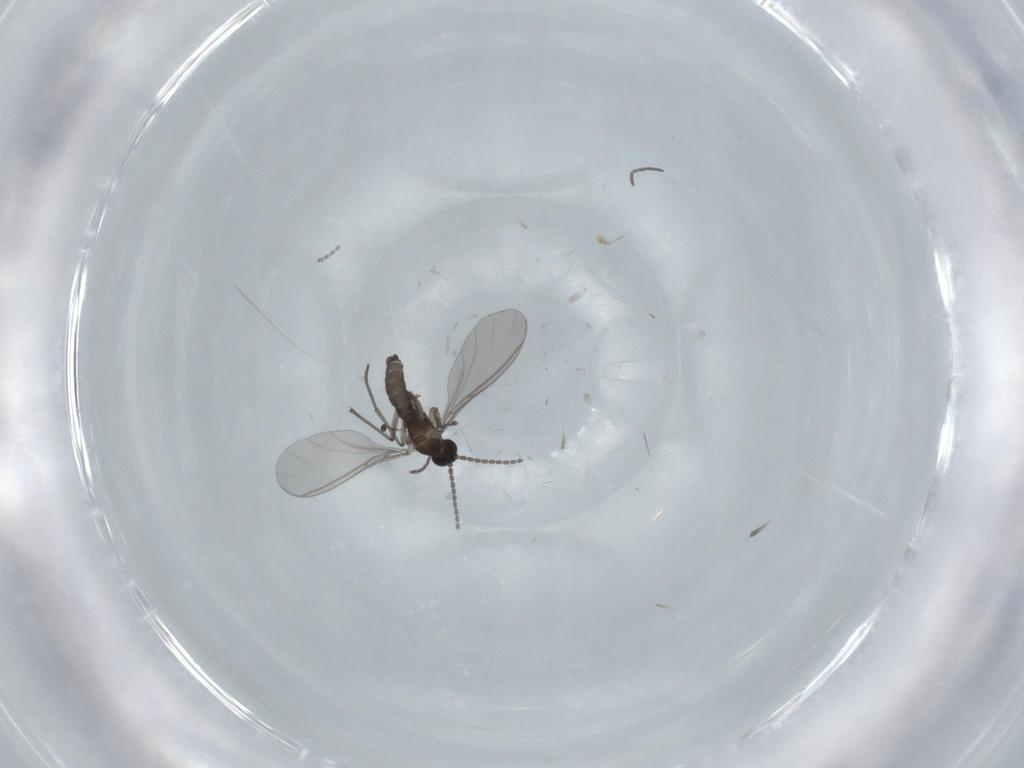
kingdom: Animalia
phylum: Arthropoda
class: Insecta
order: Diptera
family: Sciaridae
